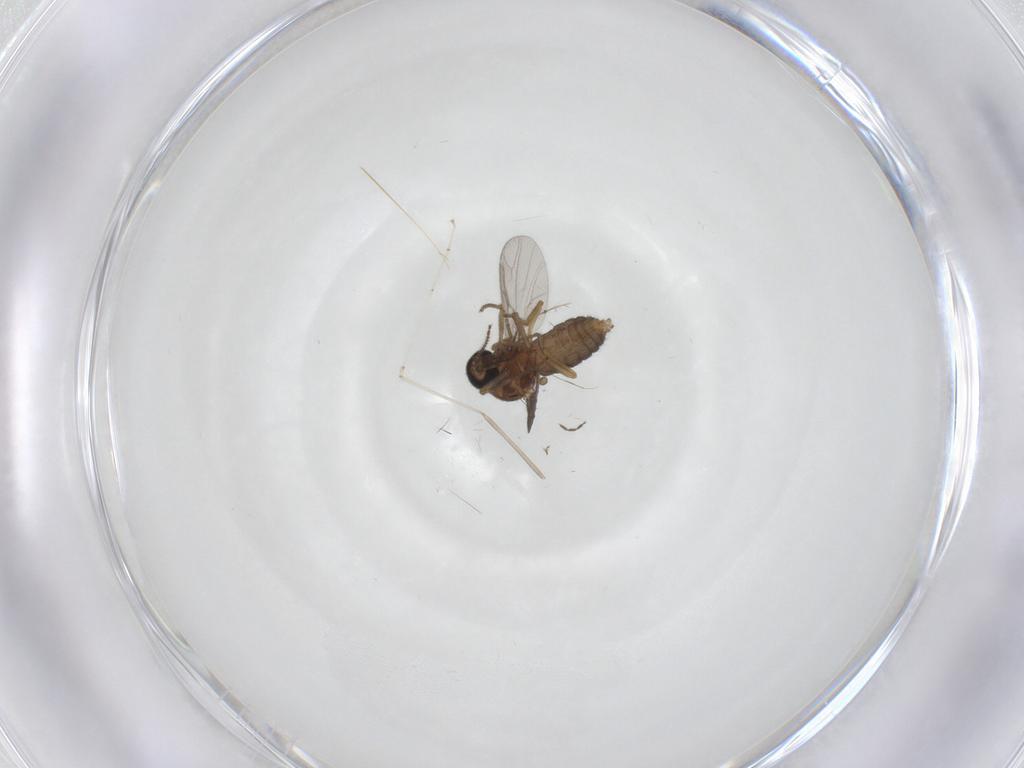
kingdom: Animalia
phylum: Arthropoda
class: Insecta
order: Diptera
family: Ceratopogonidae
